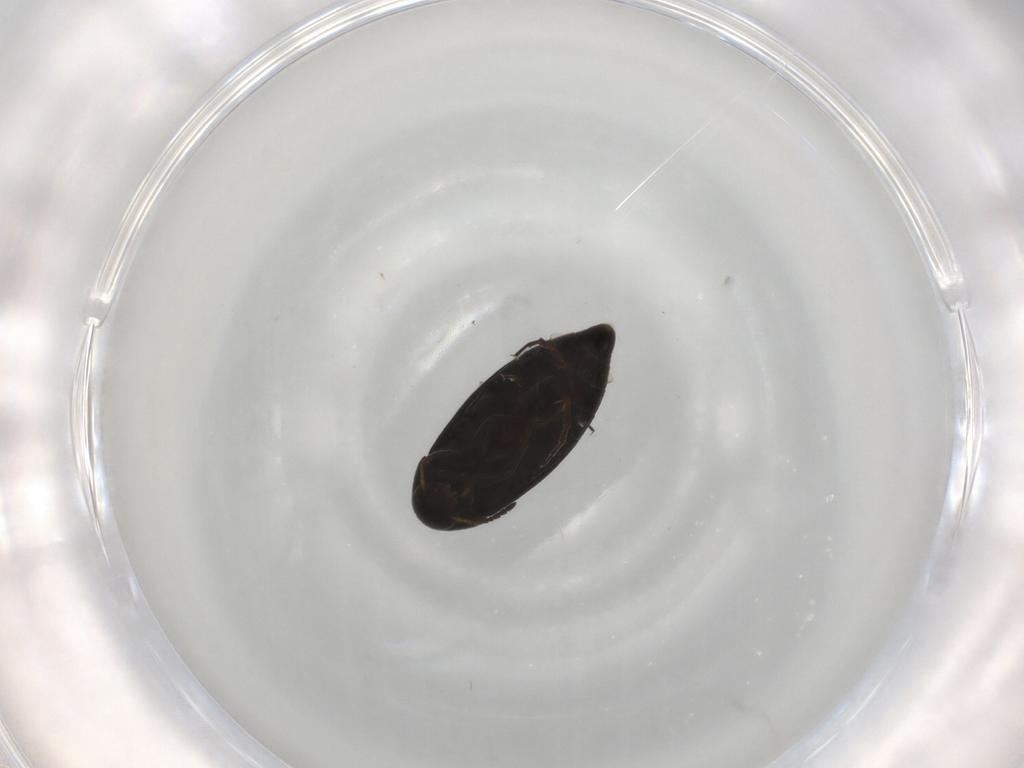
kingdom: Animalia
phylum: Arthropoda
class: Insecta
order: Coleoptera
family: Scraptiidae
